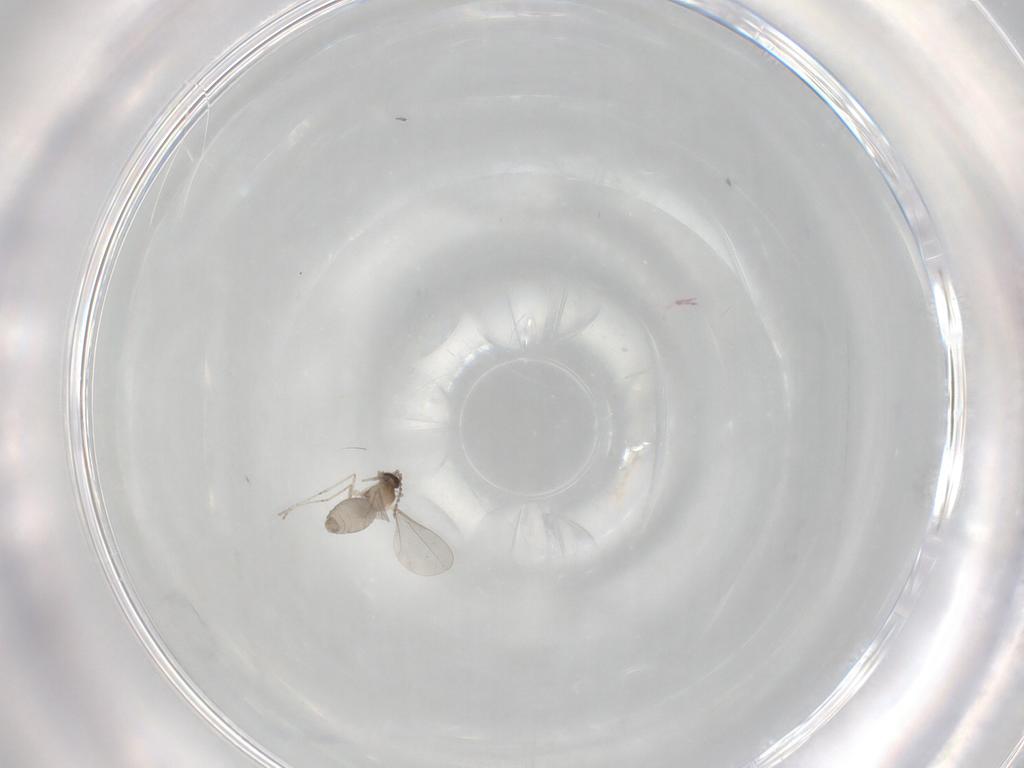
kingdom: Animalia
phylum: Arthropoda
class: Insecta
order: Diptera
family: Cecidomyiidae
